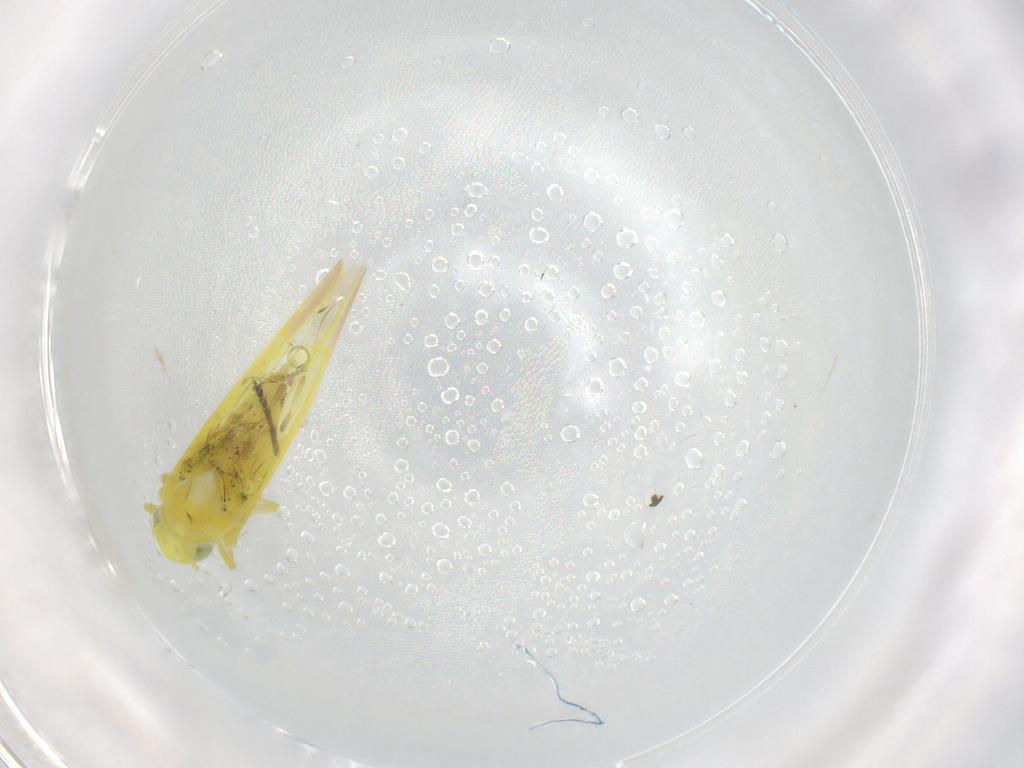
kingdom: Animalia
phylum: Arthropoda
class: Insecta
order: Hemiptera
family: Cicadellidae
